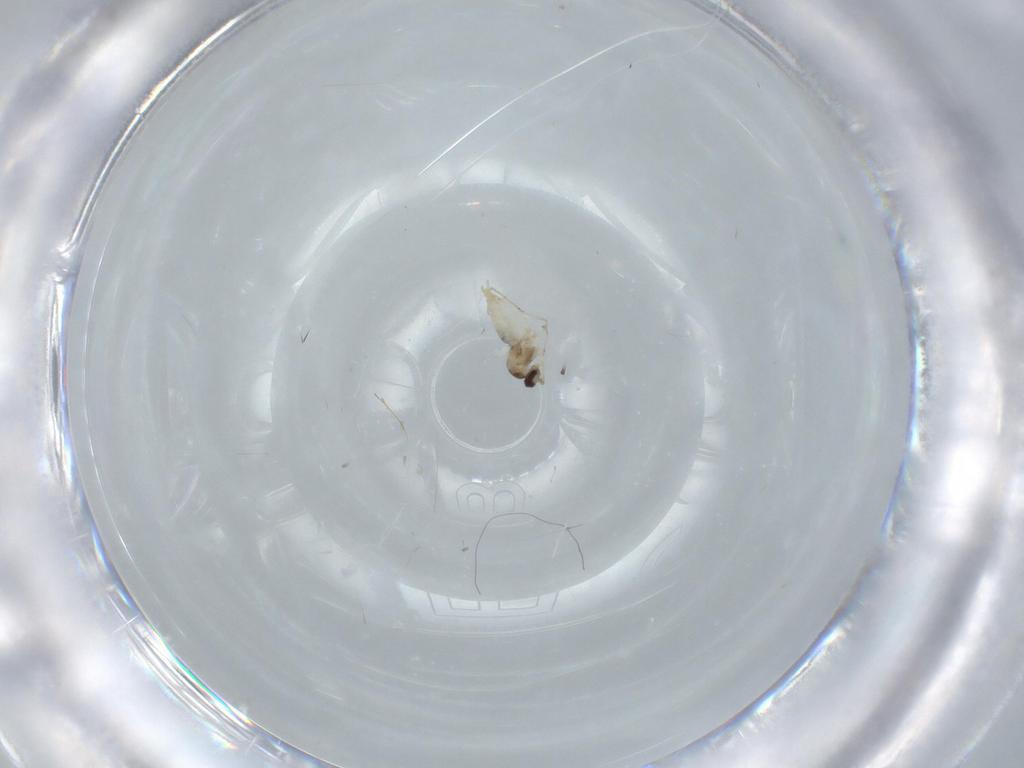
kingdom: Animalia
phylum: Arthropoda
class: Insecta
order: Diptera
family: Cecidomyiidae
